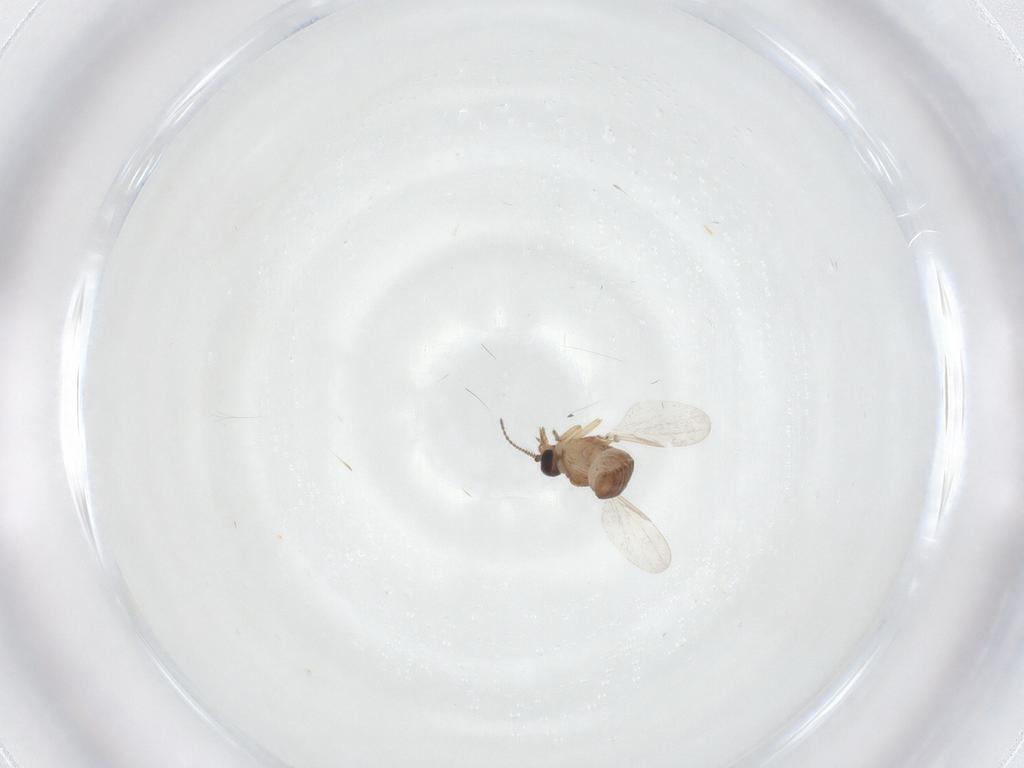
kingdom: Animalia
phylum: Arthropoda
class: Insecta
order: Diptera
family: Ceratopogonidae
